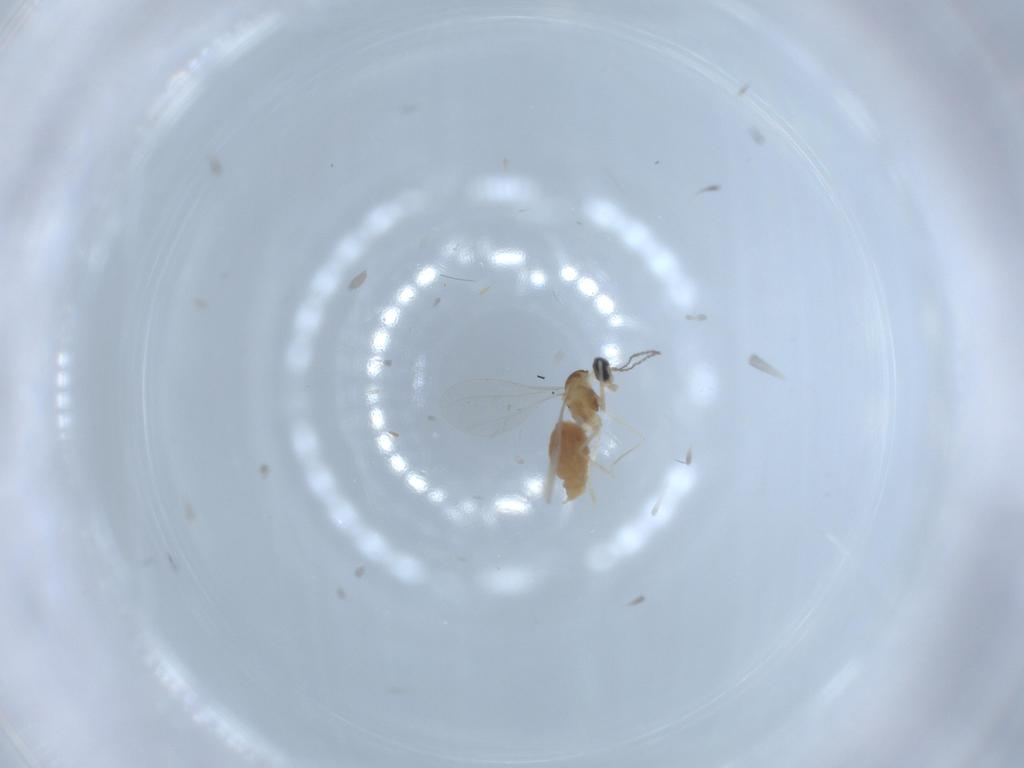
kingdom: Animalia
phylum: Arthropoda
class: Insecta
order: Diptera
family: Cecidomyiidae
